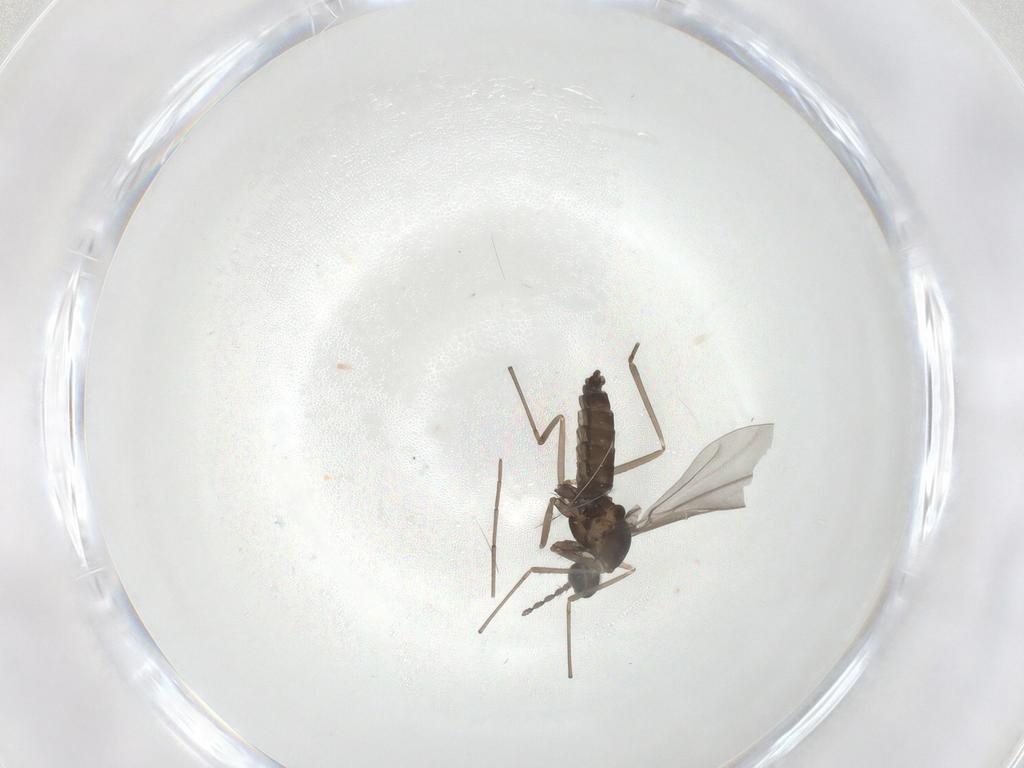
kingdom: Animalia
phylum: Arthropoda
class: Insecta
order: Diptera
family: Cecidomyiidae
